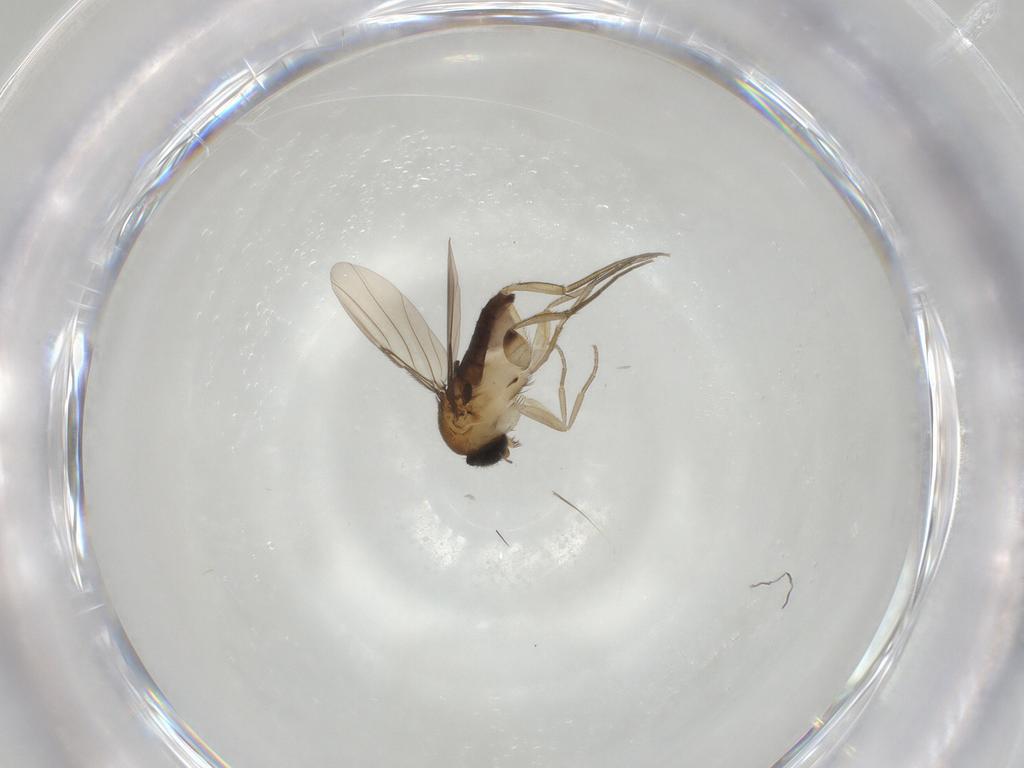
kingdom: Animalia
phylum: Arthropoda
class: Insecta
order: Diptera
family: Phoridae
